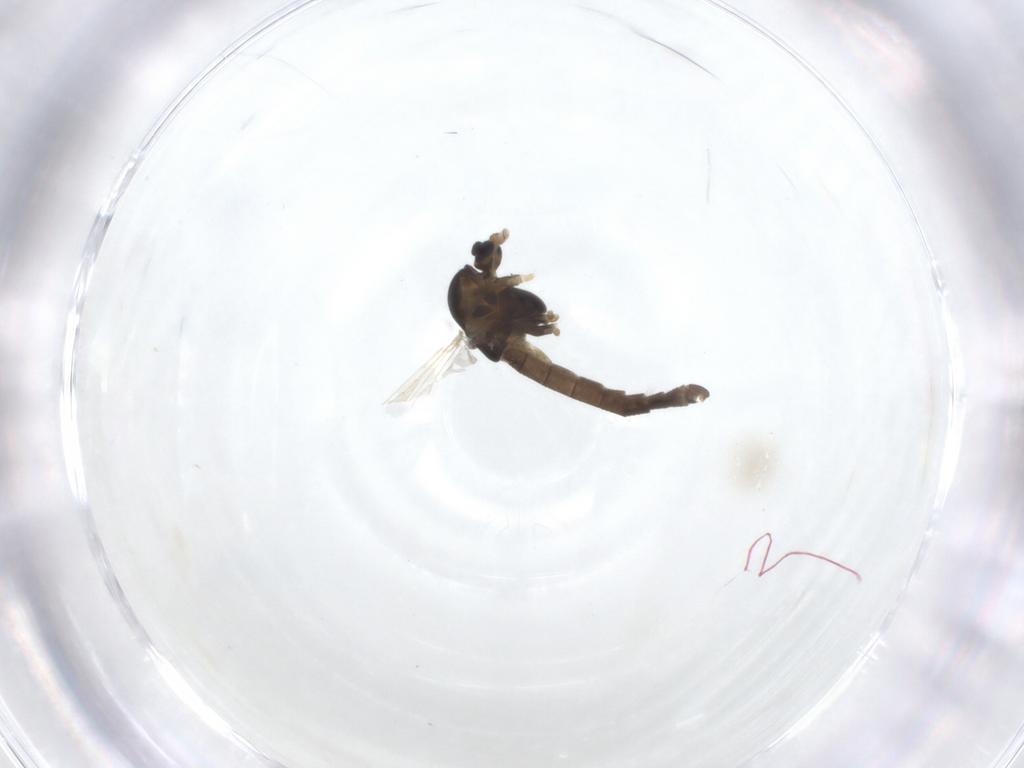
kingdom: Animalia
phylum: Arthropoda
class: Insecta
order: Diptera
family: Chironomidae
